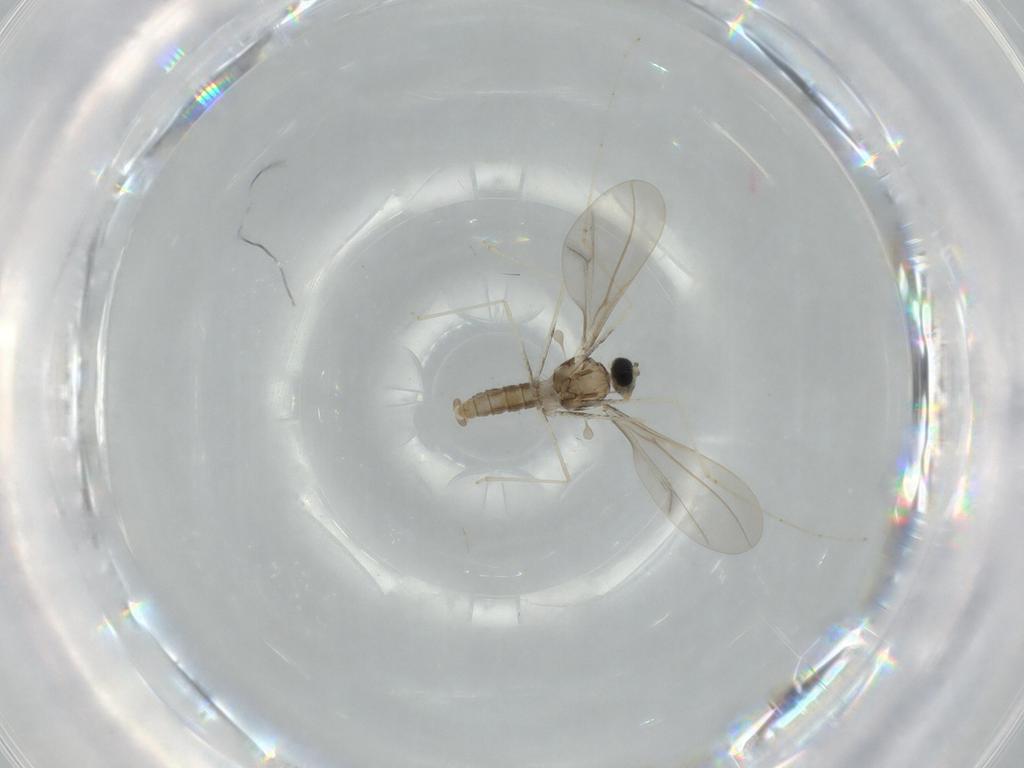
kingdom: Animalia
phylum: Arthropoda
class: Insecta
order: Diptera
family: Cecidomyiidae
